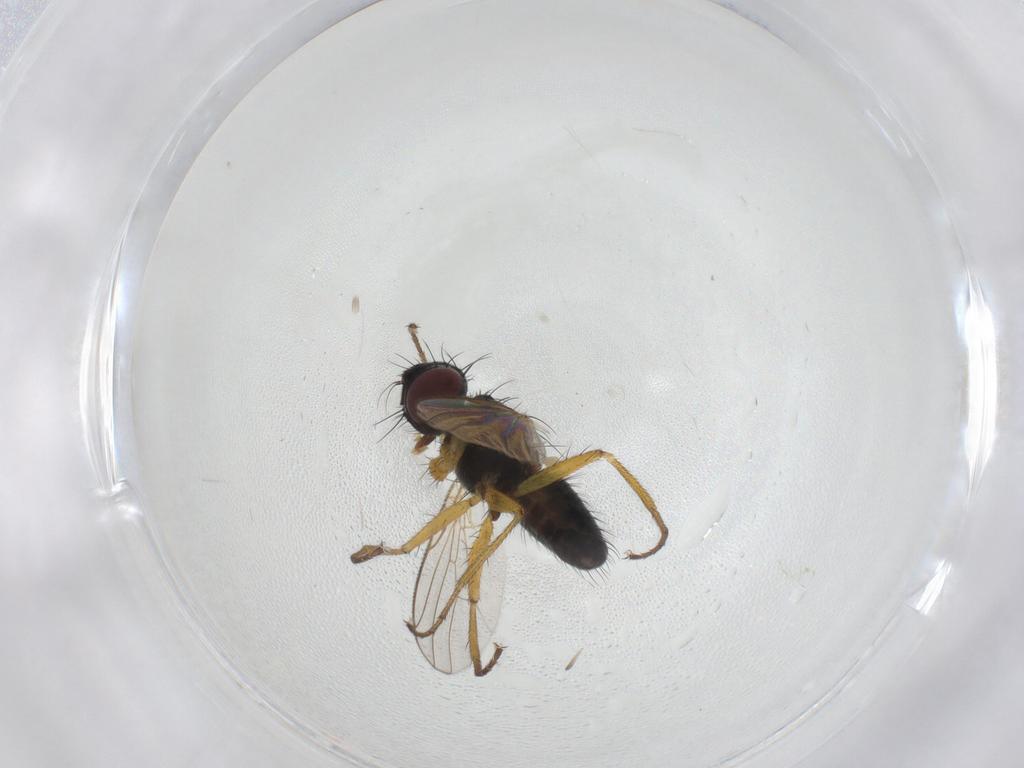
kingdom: Animalia
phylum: Arthropoda
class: Insecta
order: Diptera
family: Muscidae
